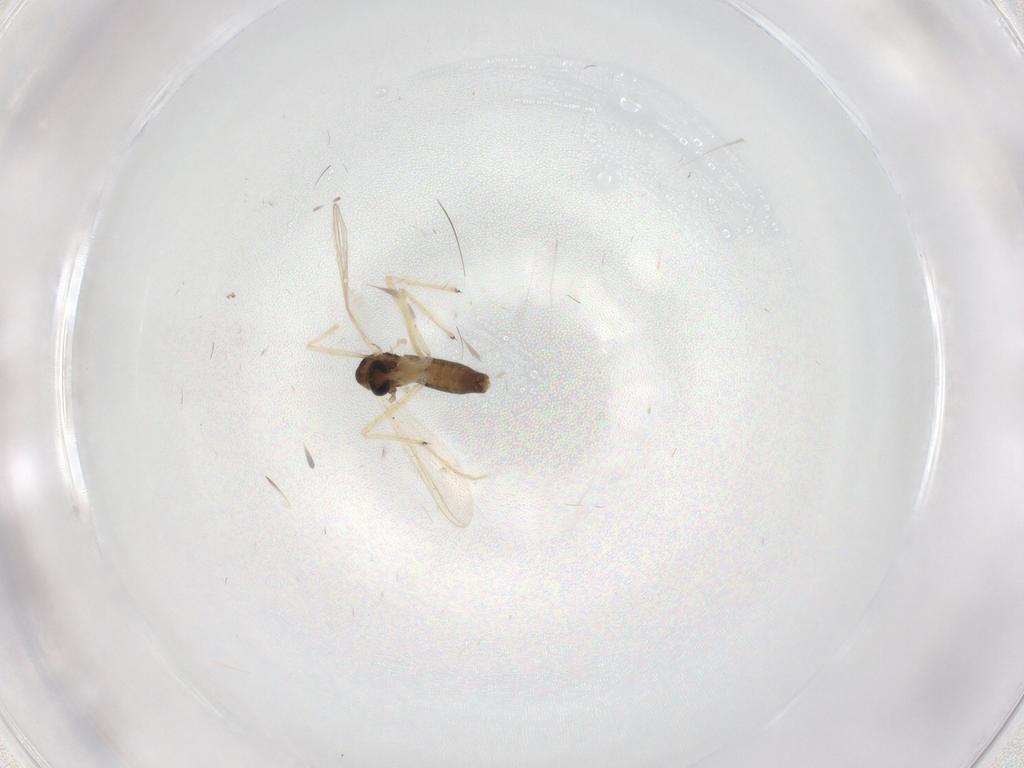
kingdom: Animalia
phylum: Arthropoda
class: Insecta
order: Diptera
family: Chironomidae
